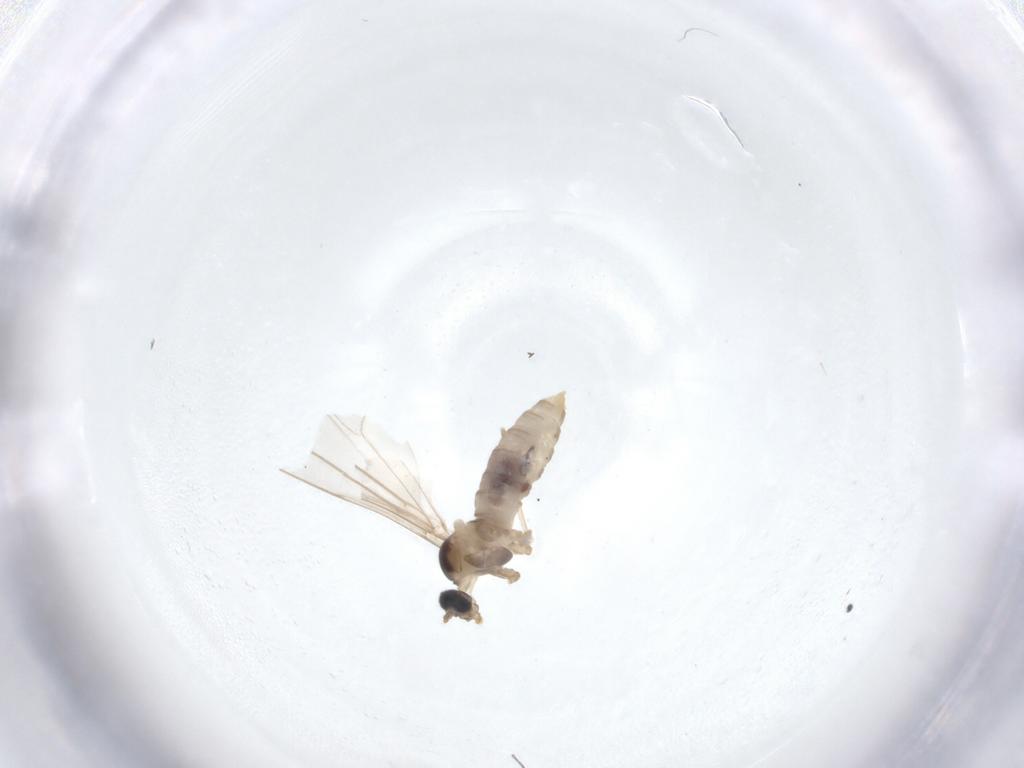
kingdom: Animalia
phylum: Arthropoda
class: Insecta
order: Diptera
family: Cecidomyiidae
